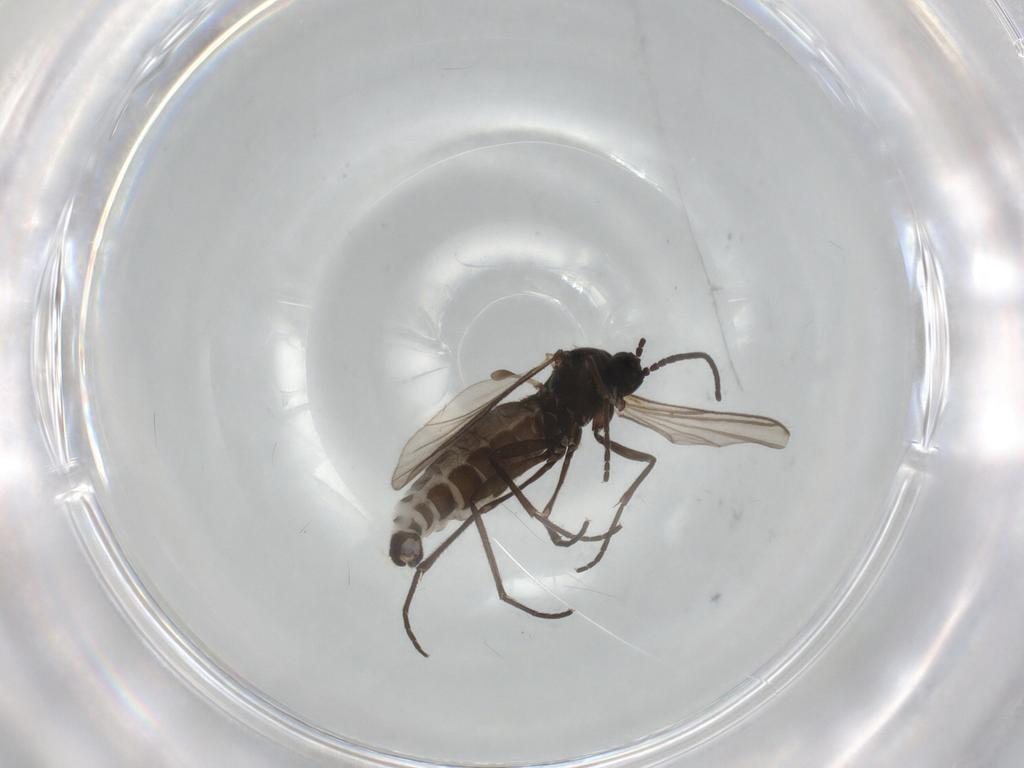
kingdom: Animalia
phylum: Arthropoda
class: Insecta
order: Diptera
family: Sciaridae
